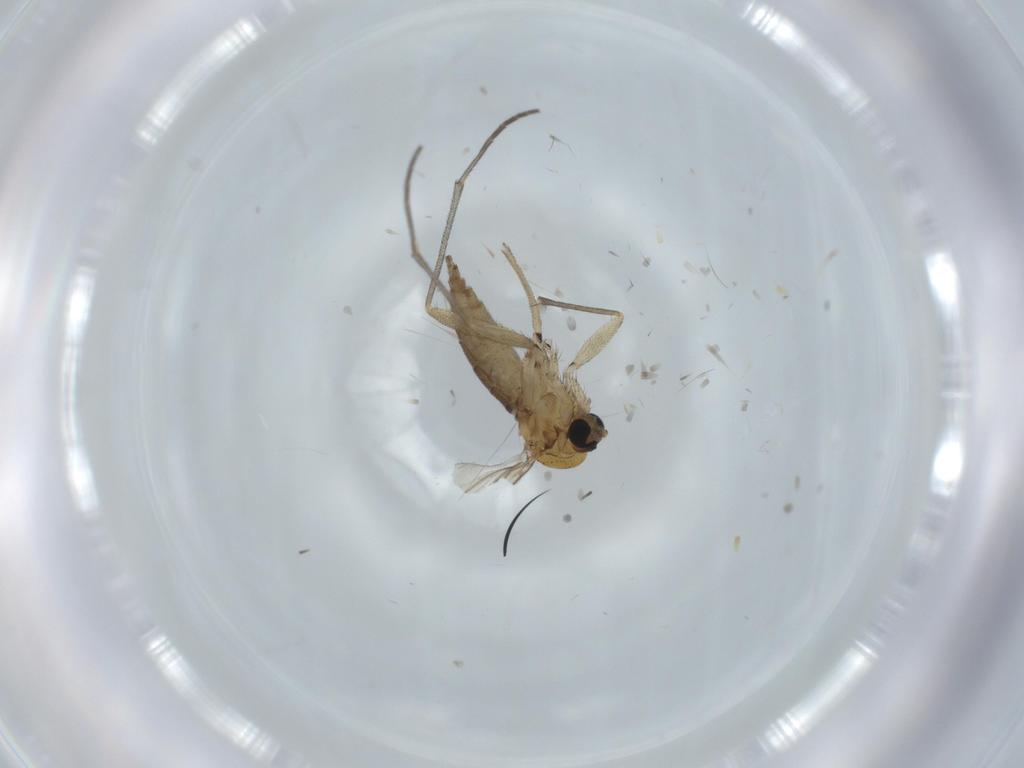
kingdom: Animalia
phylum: Arthropoda
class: Insecta
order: Diptera
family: Sciaridae
